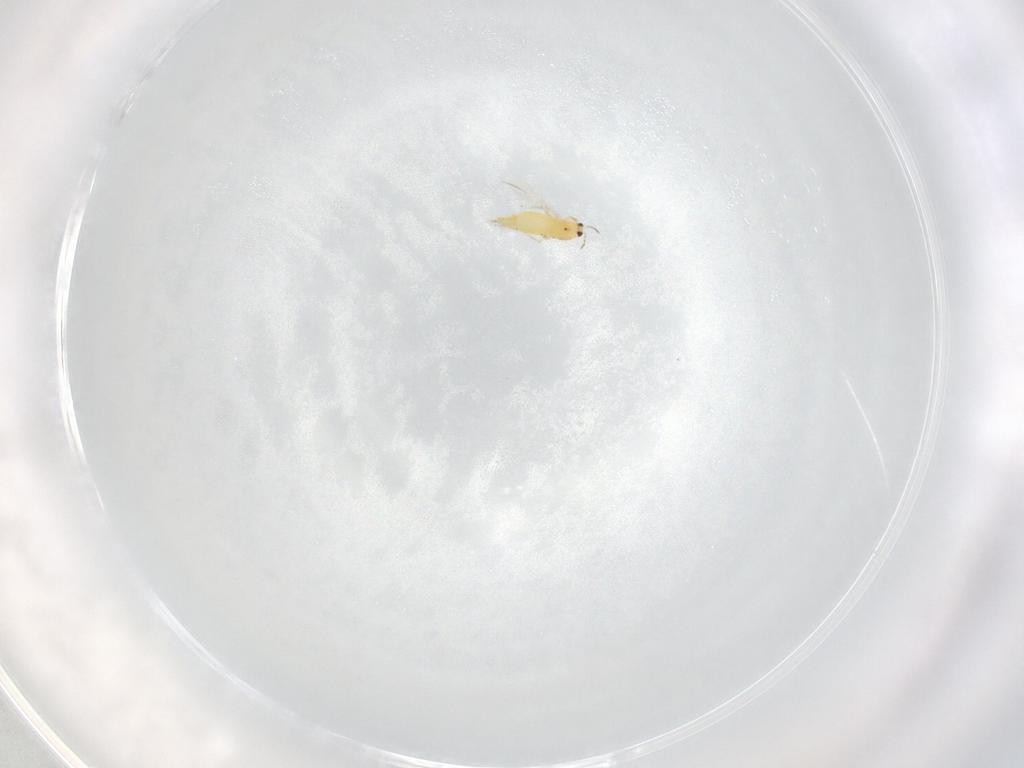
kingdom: Animalia
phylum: Arthropoda
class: Insecta
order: Thysanoptera
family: Thripidae
